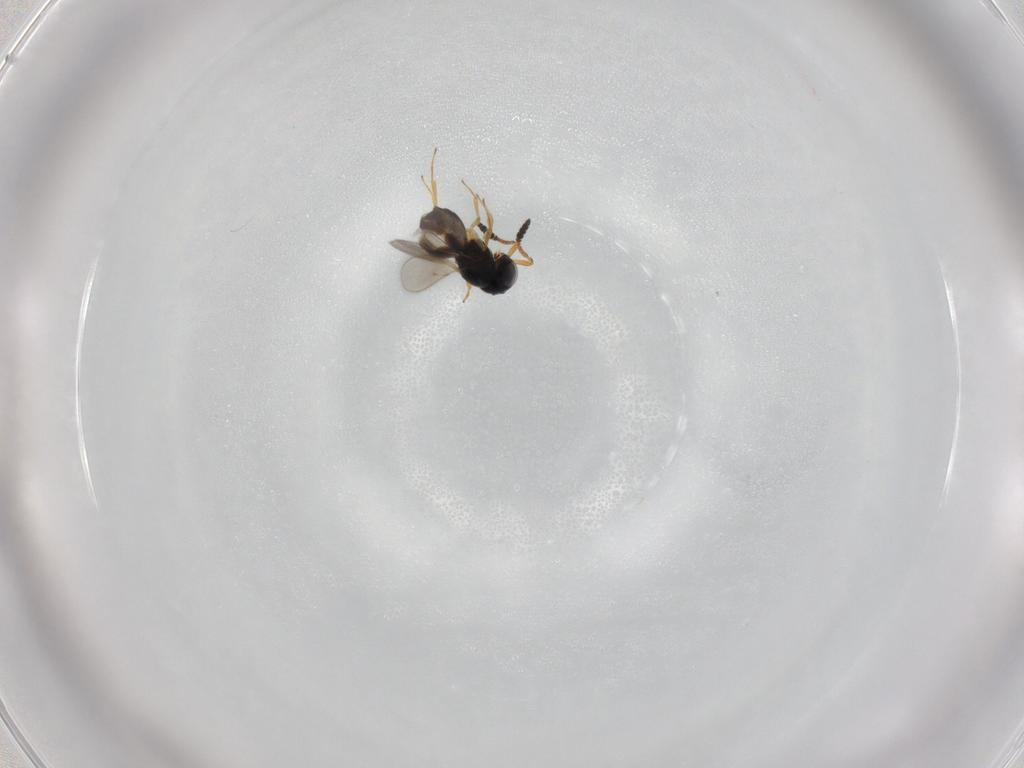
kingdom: Animalia
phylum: Arthropoda
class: Insecta
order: Hymenoptera
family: Scelionidae
